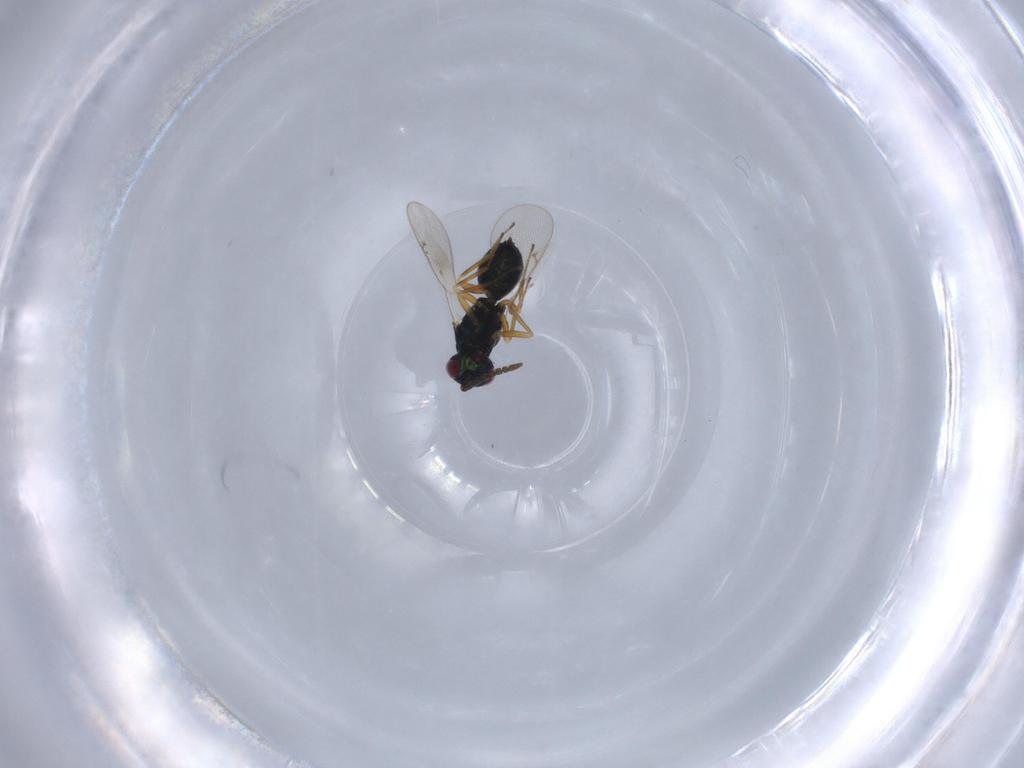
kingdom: Animalia
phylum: Arthropoda
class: Insecta
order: Hymenoptera
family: Tetracampidae
